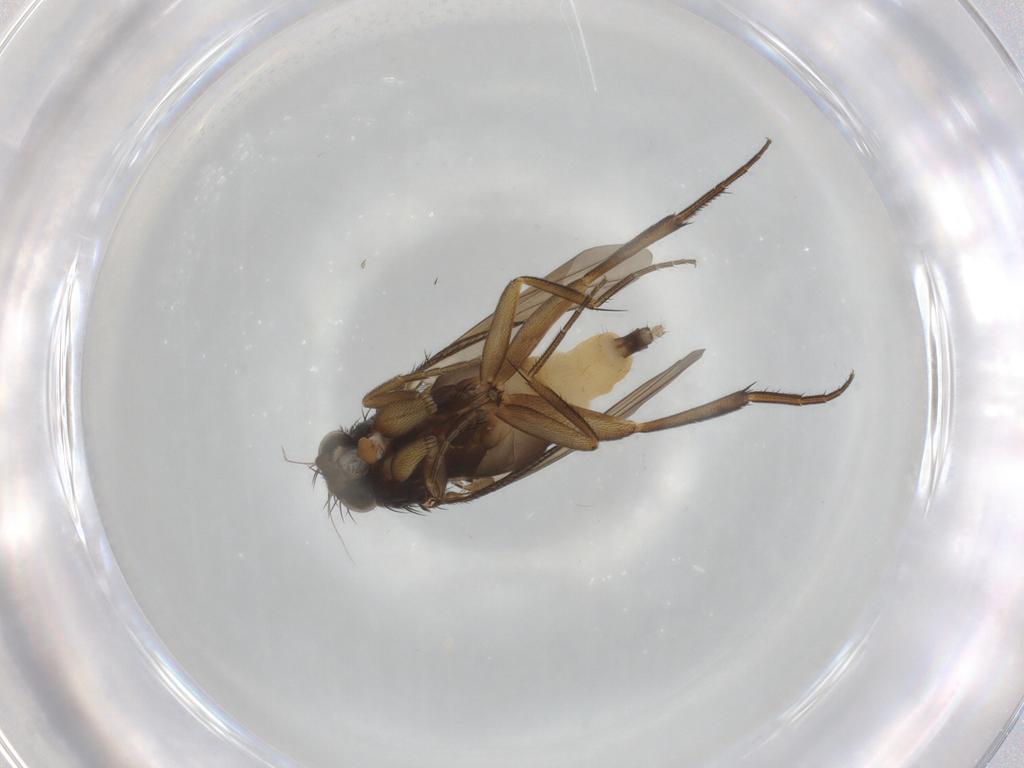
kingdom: Animalia
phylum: Arthropoda
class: Insecta
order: Diptera
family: Phoridae
